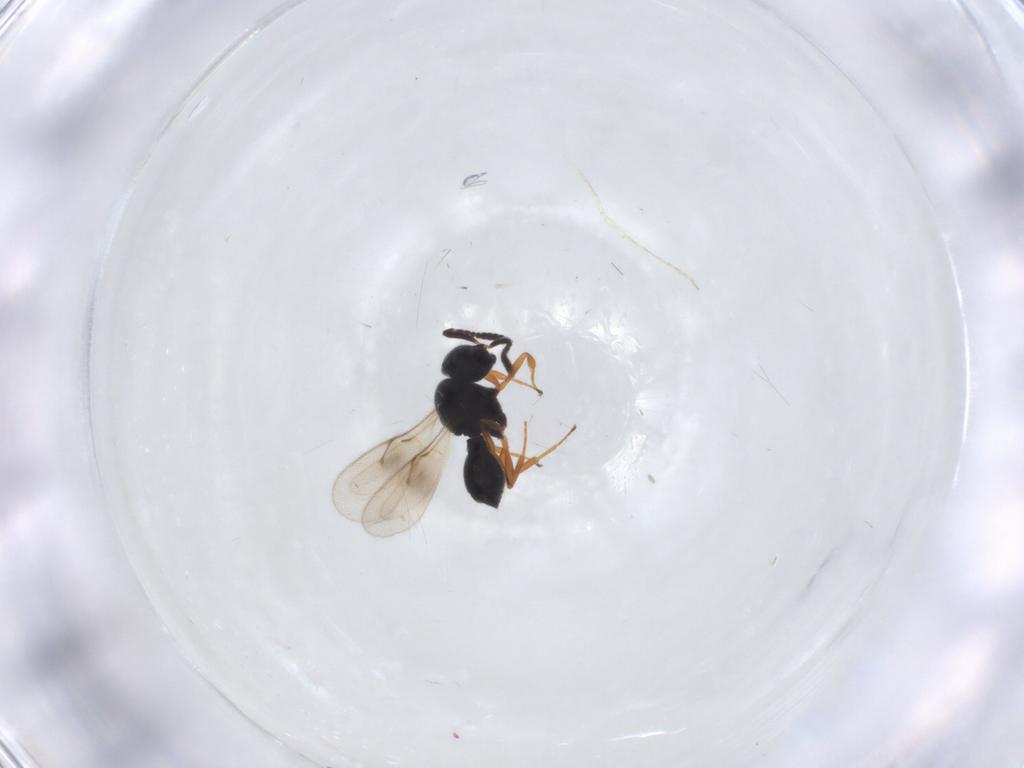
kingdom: Animalia
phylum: Arthropoda
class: Insecta
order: Hymenoptera
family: Scelionidae
